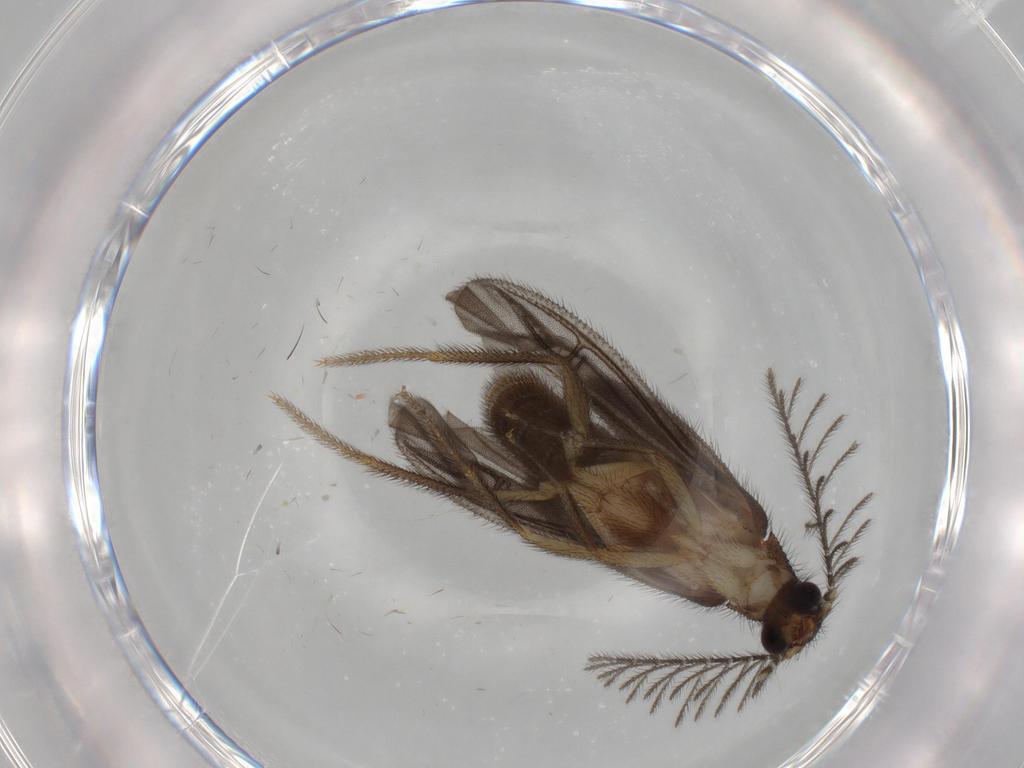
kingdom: Animalia
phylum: Arthropoda
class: Insecta
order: Coleoptera
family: Phengodidae
